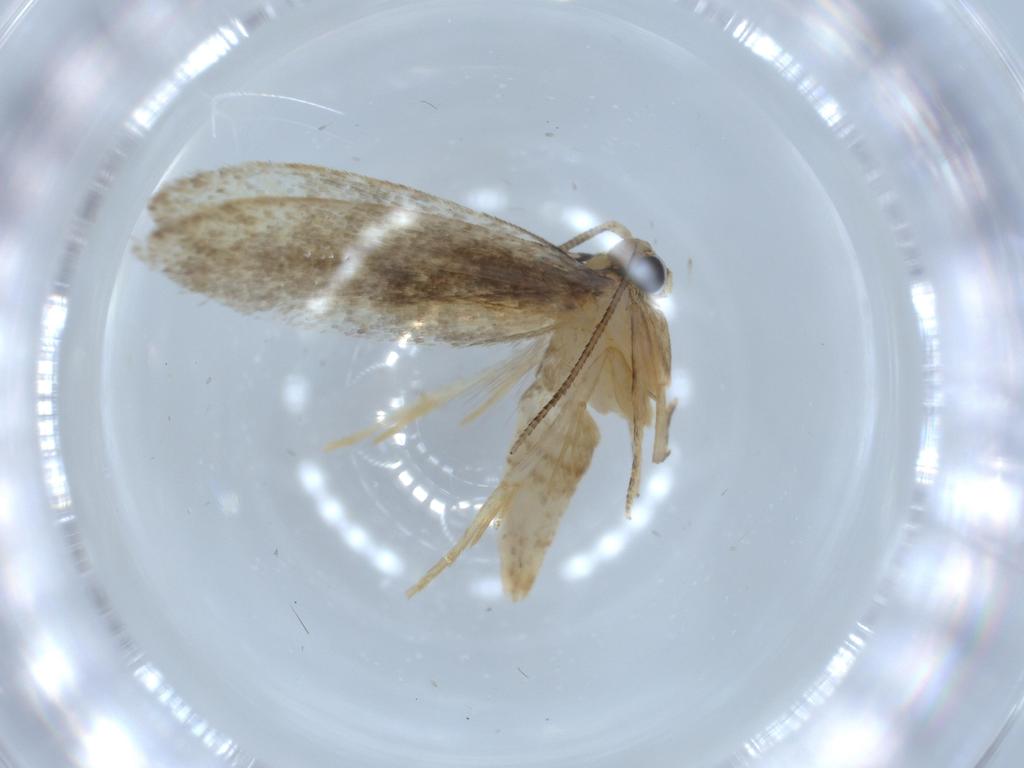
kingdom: Animalia
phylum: Arthropoda
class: Insecta
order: Lepidoptera
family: Tineidae
